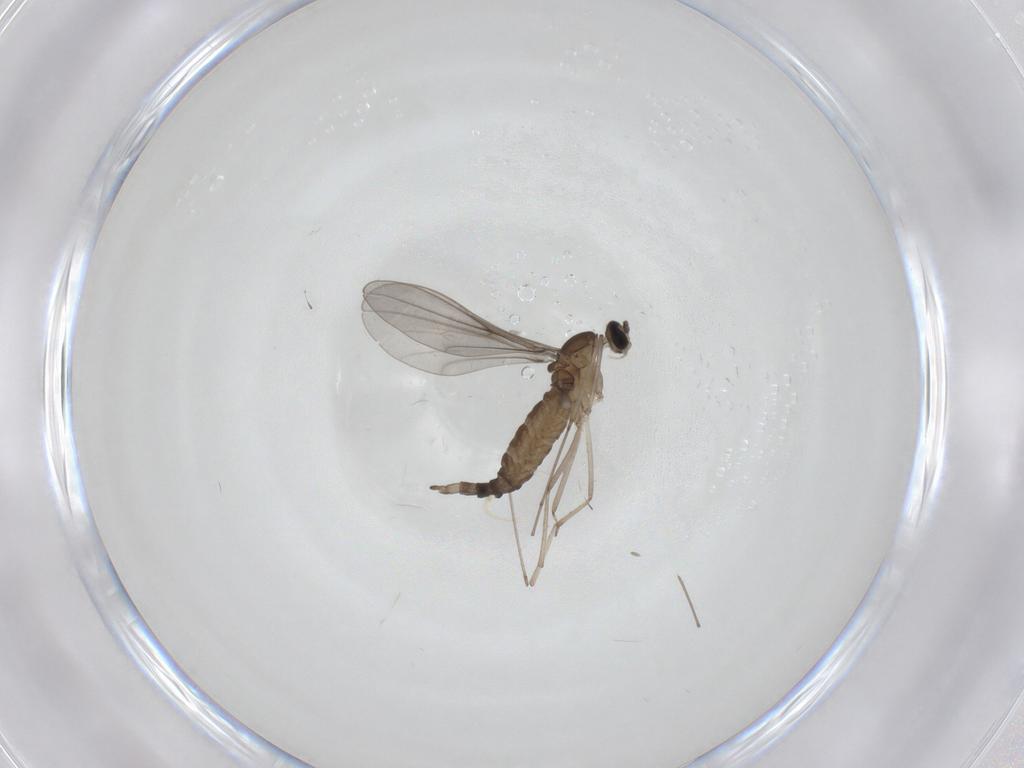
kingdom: Animalia
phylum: Arthropoda
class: Insecta
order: Diptera
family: Cecidomyiidae
